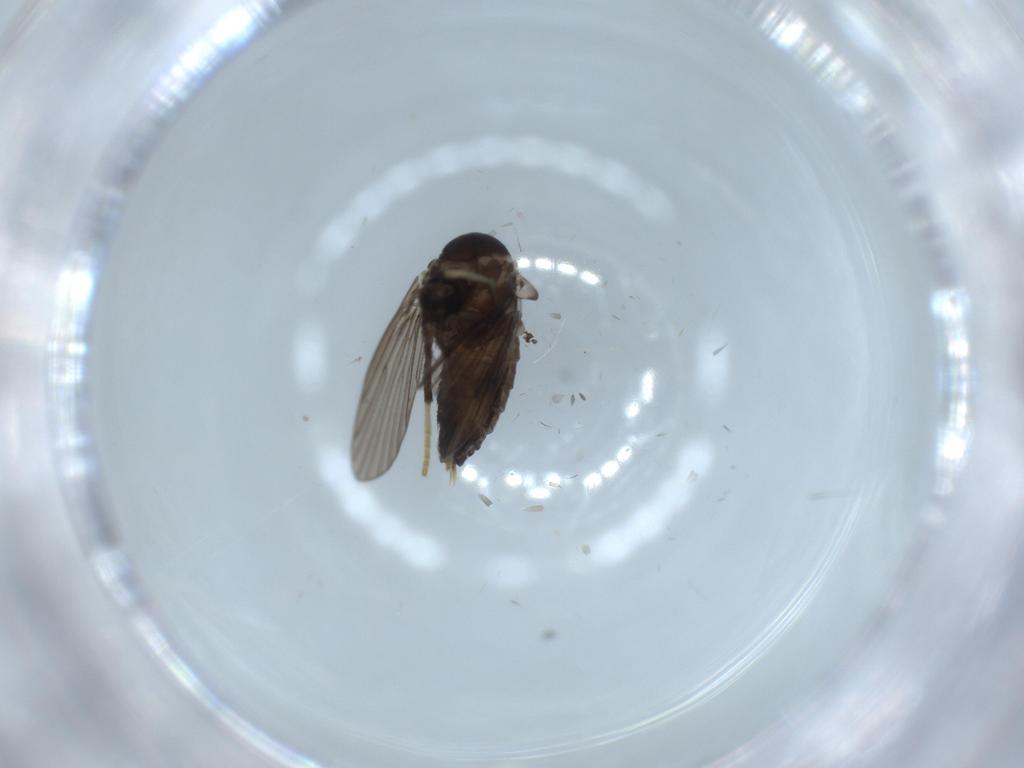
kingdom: Animalia
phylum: Arthropoda
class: Insecta
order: Diptera
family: Psychodidae
